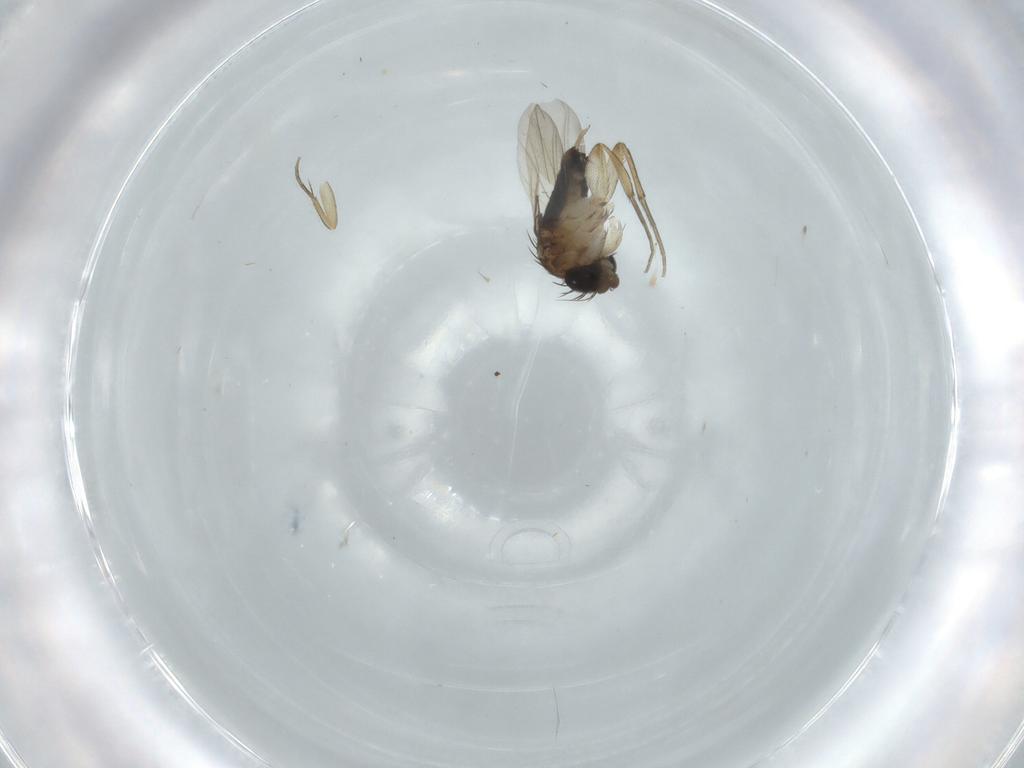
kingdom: Animalia
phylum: Arthropoda
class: Insecta
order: Diptera
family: Phoridae
